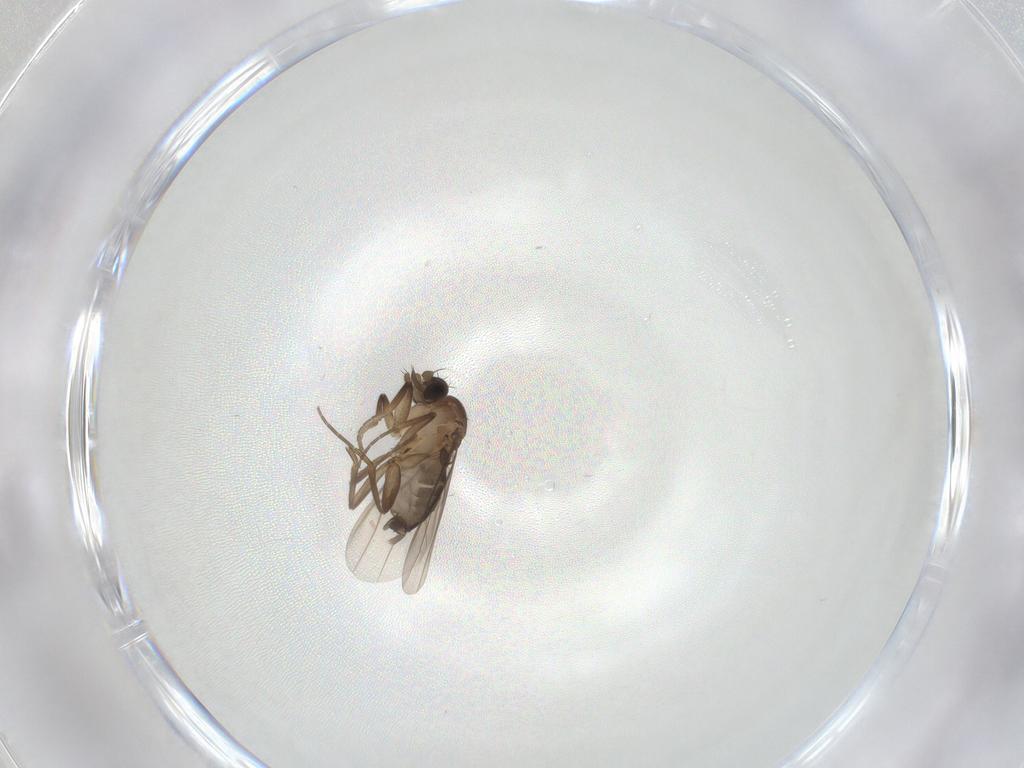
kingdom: Animalia
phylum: Arthropoda
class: Insecta
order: Diptera
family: Phoridae
